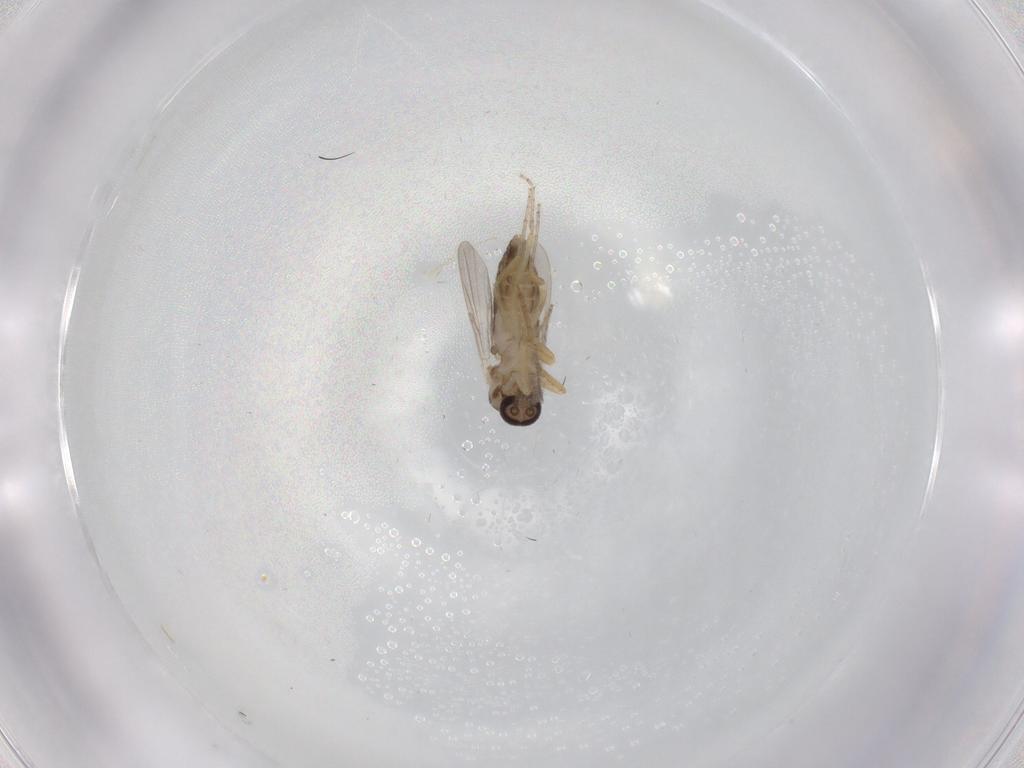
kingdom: Animalia
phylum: Arthropoda
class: Insecta
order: Diptera
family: Ceratopogonidae
